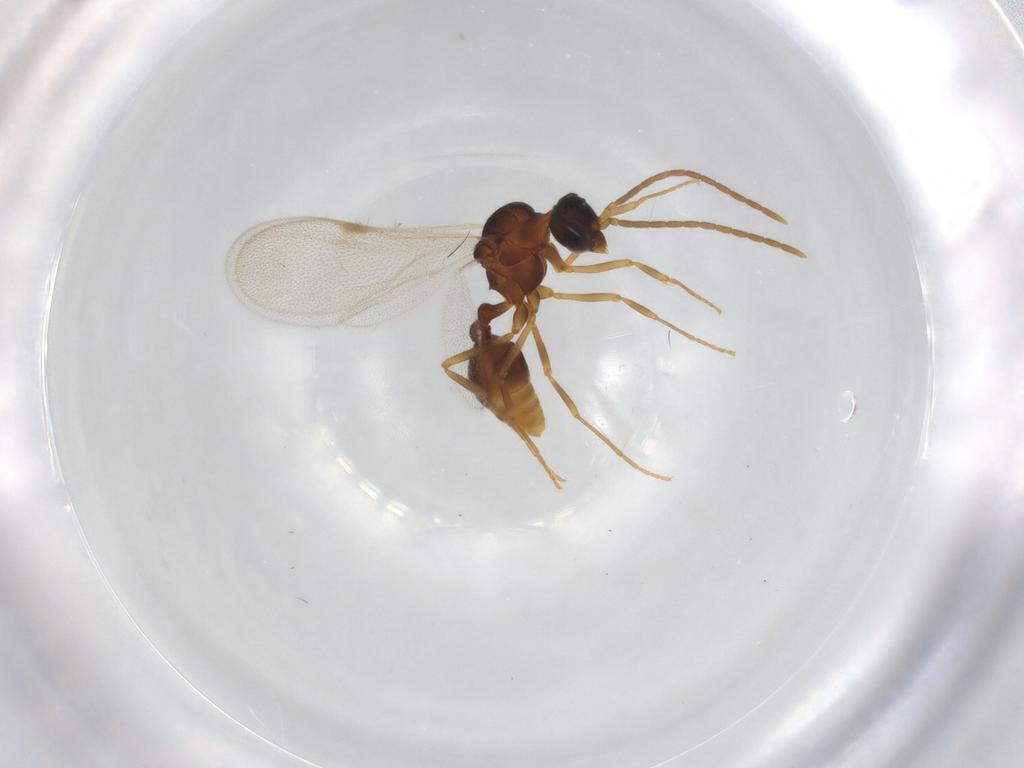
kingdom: Animalia
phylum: Arthropoda
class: Insecta
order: Hymenoptera
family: Formicidae
